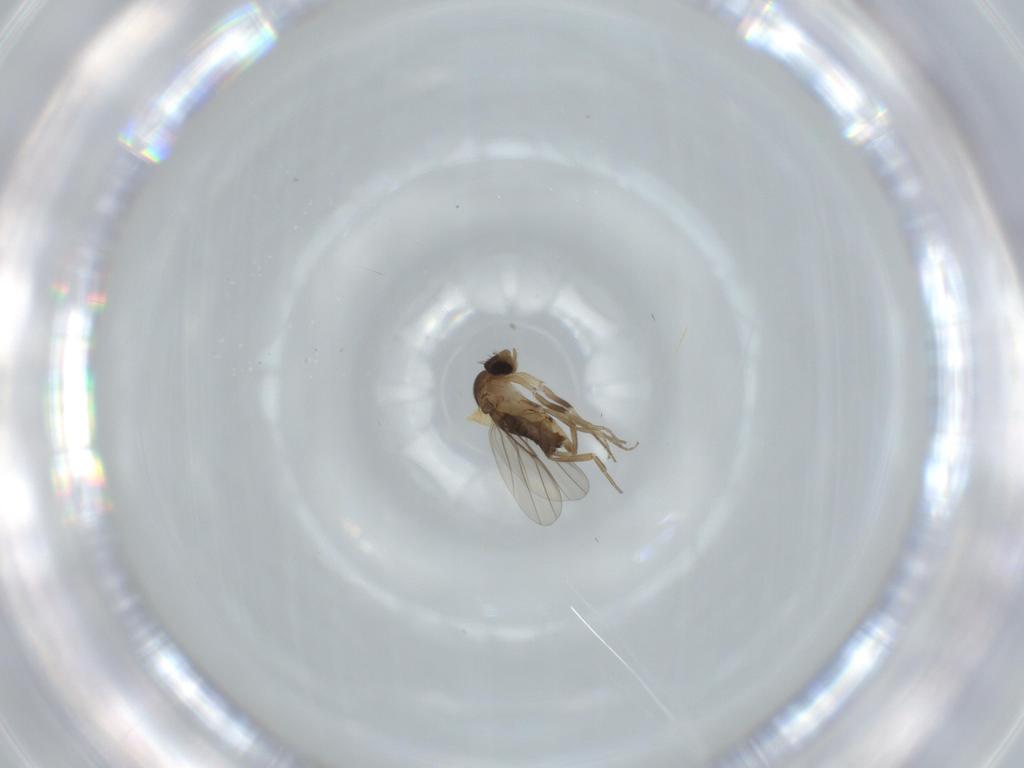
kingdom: Animalia
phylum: Arthropoda
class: Insecta
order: Diptera
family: Phoridae
